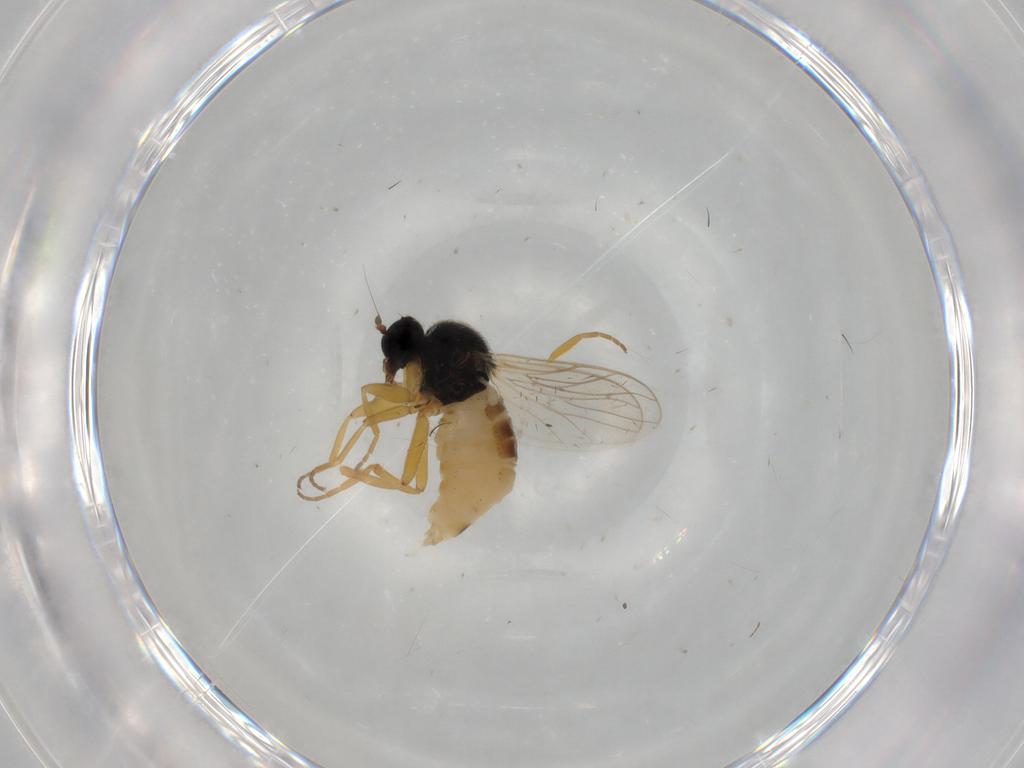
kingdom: Animalia
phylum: Arthropoda
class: Insecta
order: Diptera
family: Hybotidae
